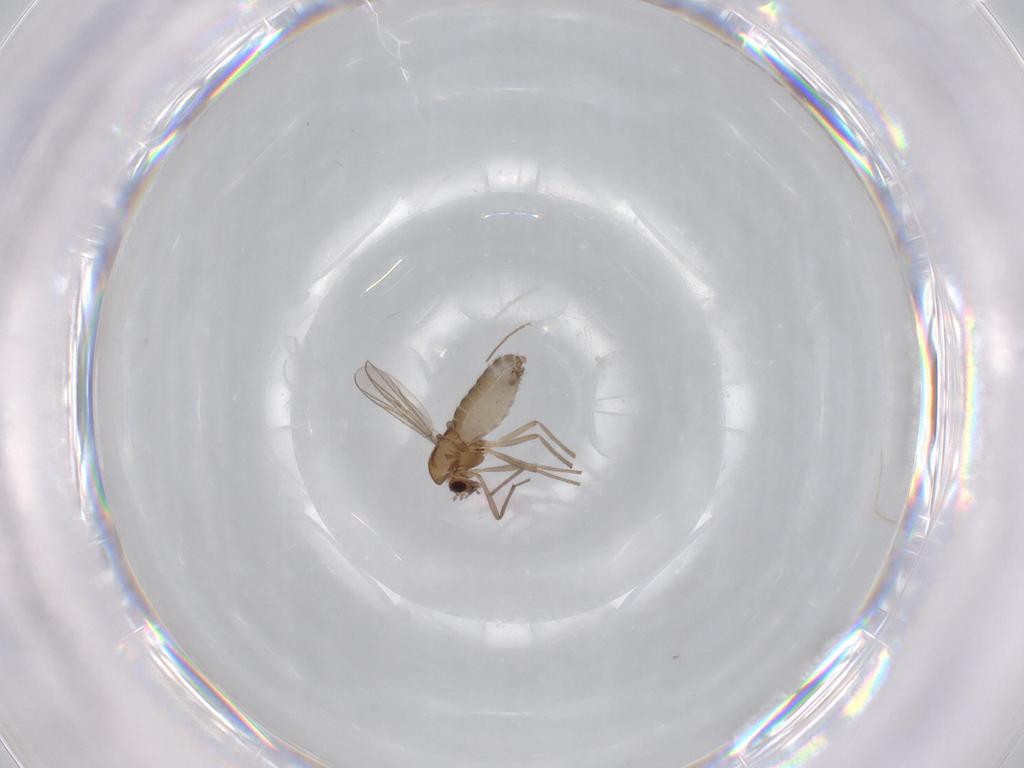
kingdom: Animalia
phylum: Arthropoda
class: Insecta
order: Diptera
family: Chironomidae
